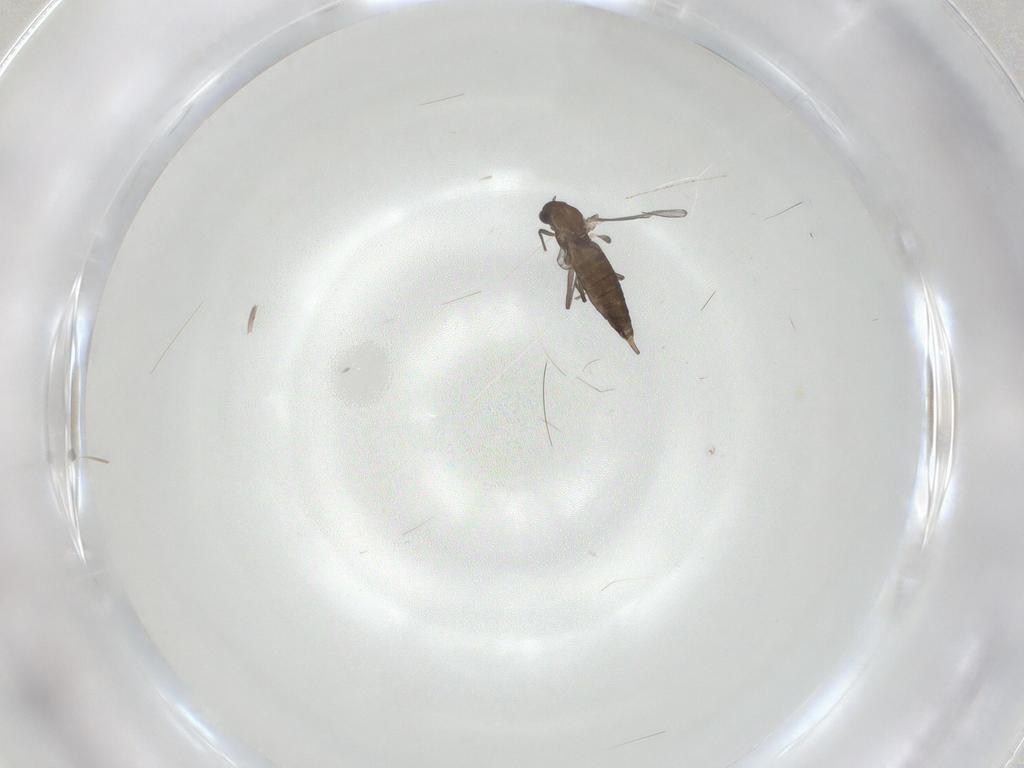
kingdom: Animalia
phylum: Arthropoda
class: Insecta
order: Diptera
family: Chironomidae
